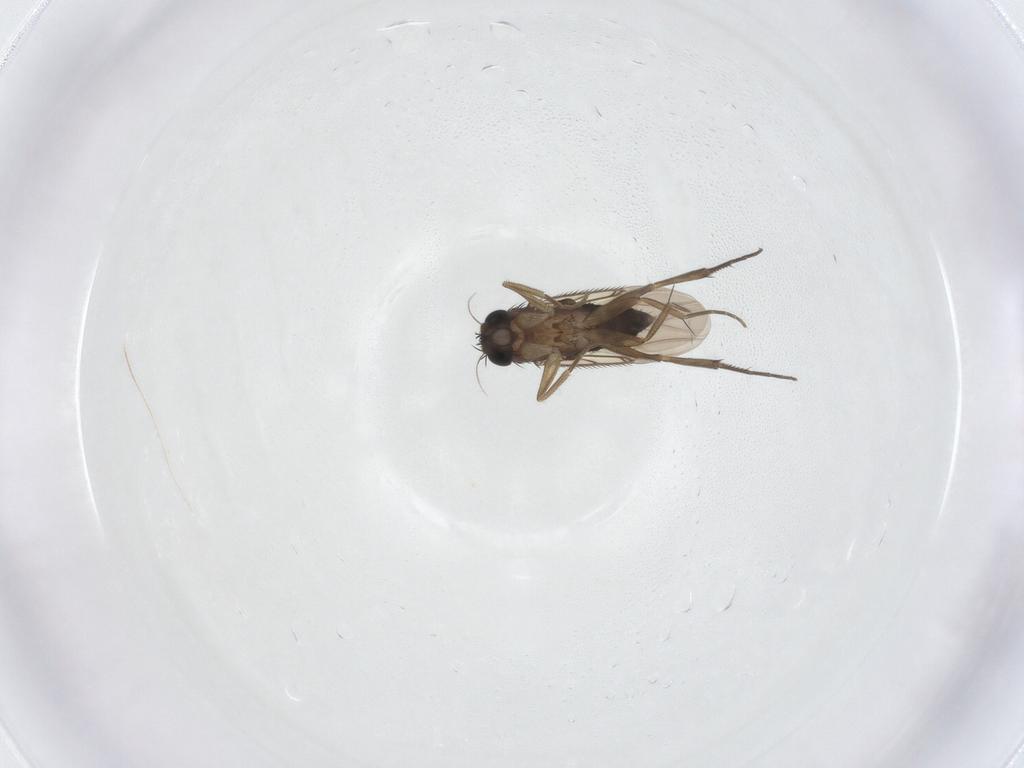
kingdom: Animalia
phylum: Arthropoda
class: Insecta
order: Diptera
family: Phoridae
